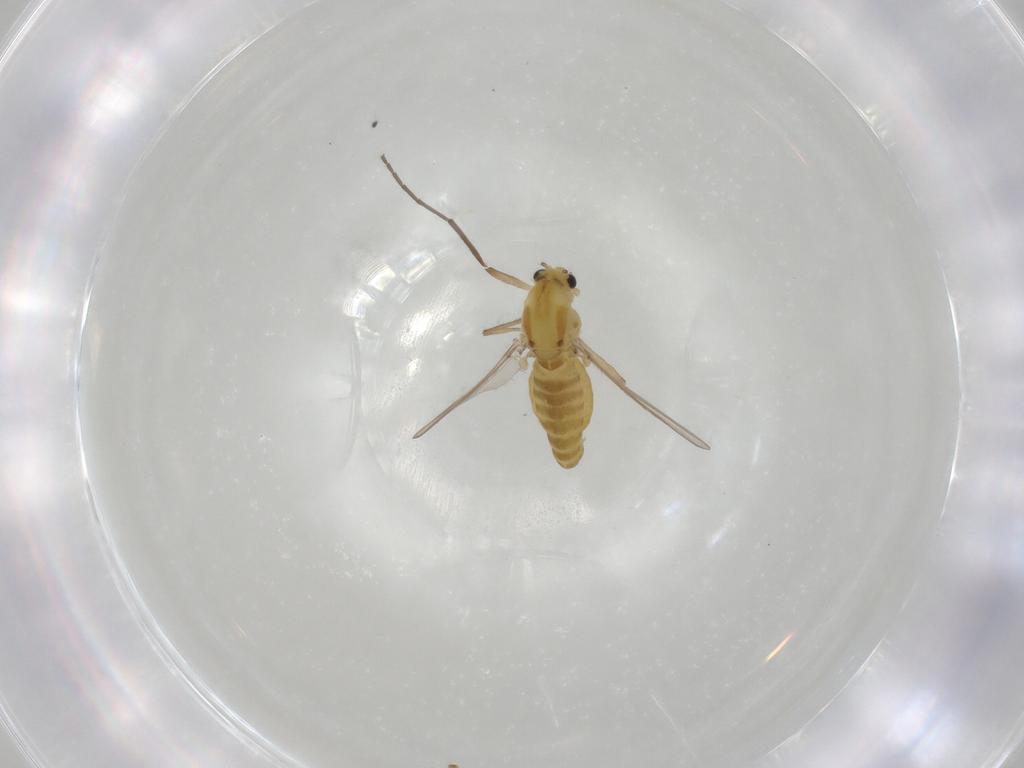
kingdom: Animalia
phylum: Arthropoda
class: Insecta
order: Diptera
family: Chironomidae
